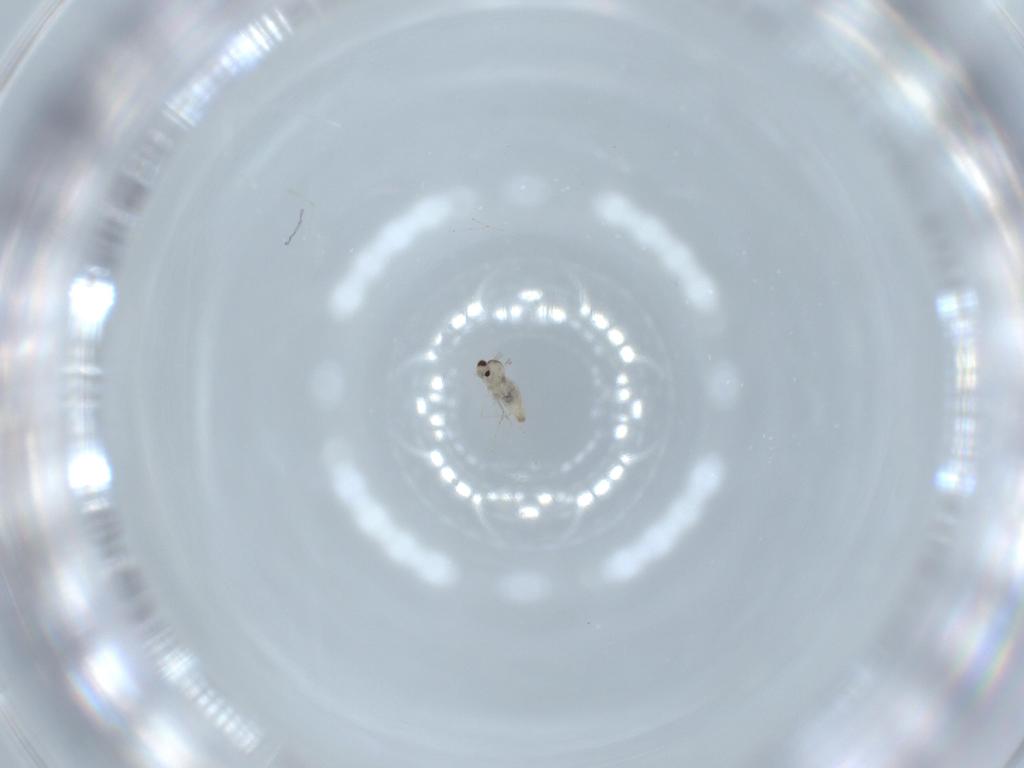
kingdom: Animalia
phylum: Arthropoda
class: Insecta
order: Diptera
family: Cecidomyiidae
